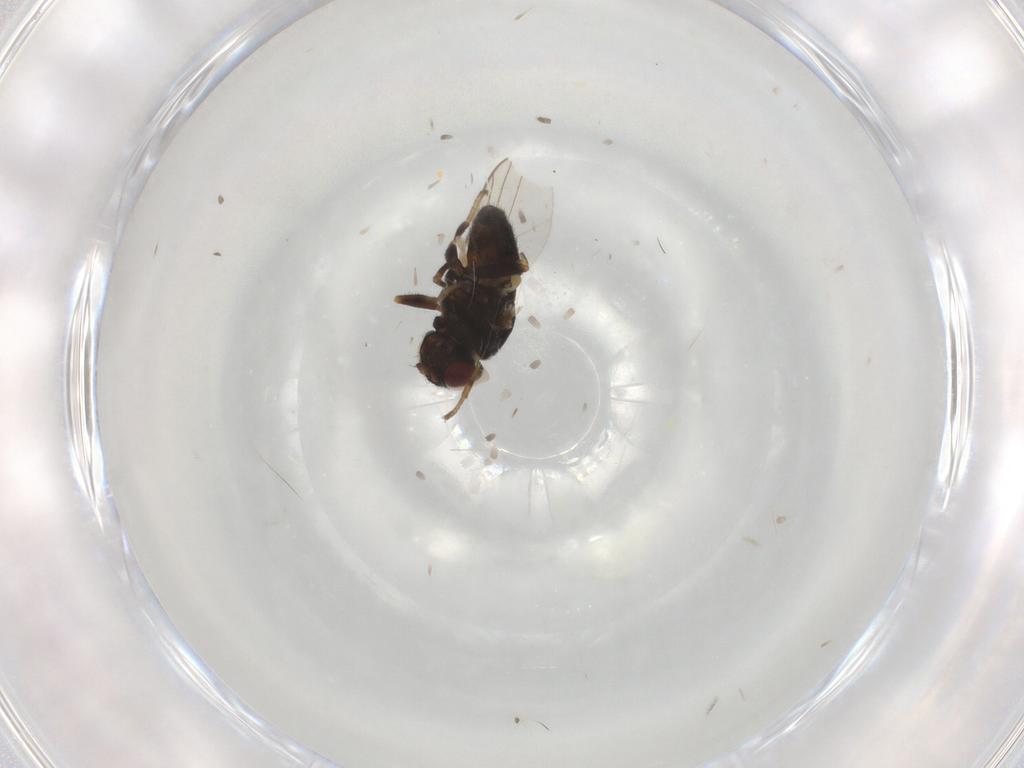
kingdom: Animalia
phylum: Arthropoda
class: Insecta
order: Diptera
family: Chloropidae
